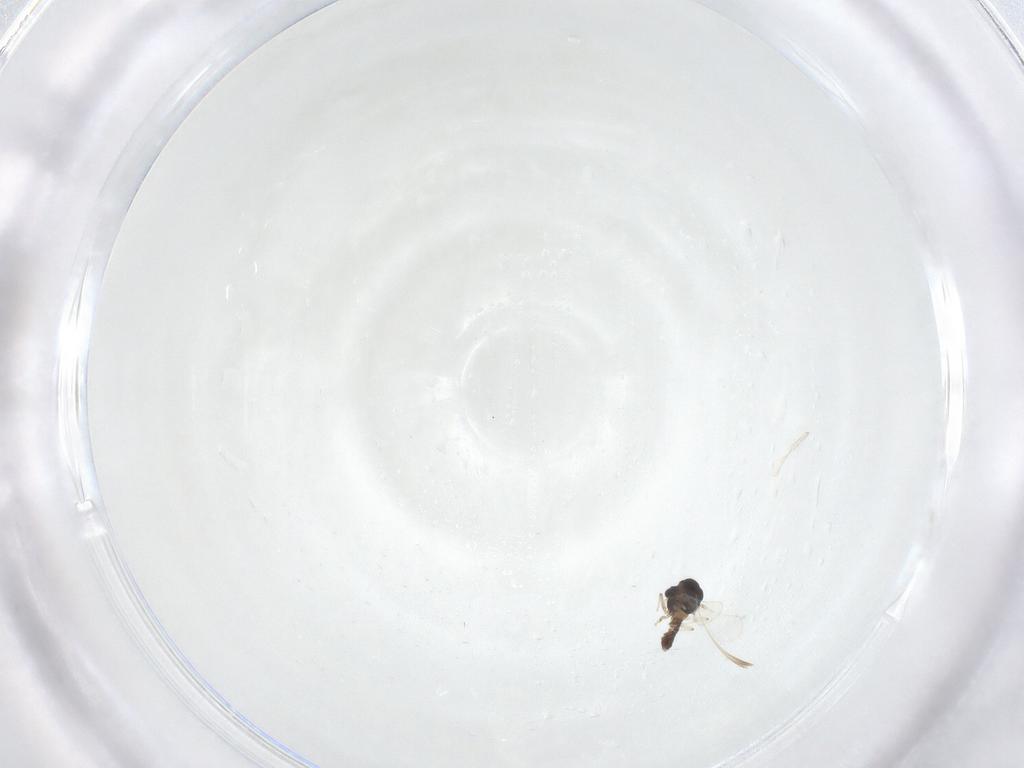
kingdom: Animalia
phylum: Arthropoda
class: Insecta
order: Diptera
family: Chironomidae
